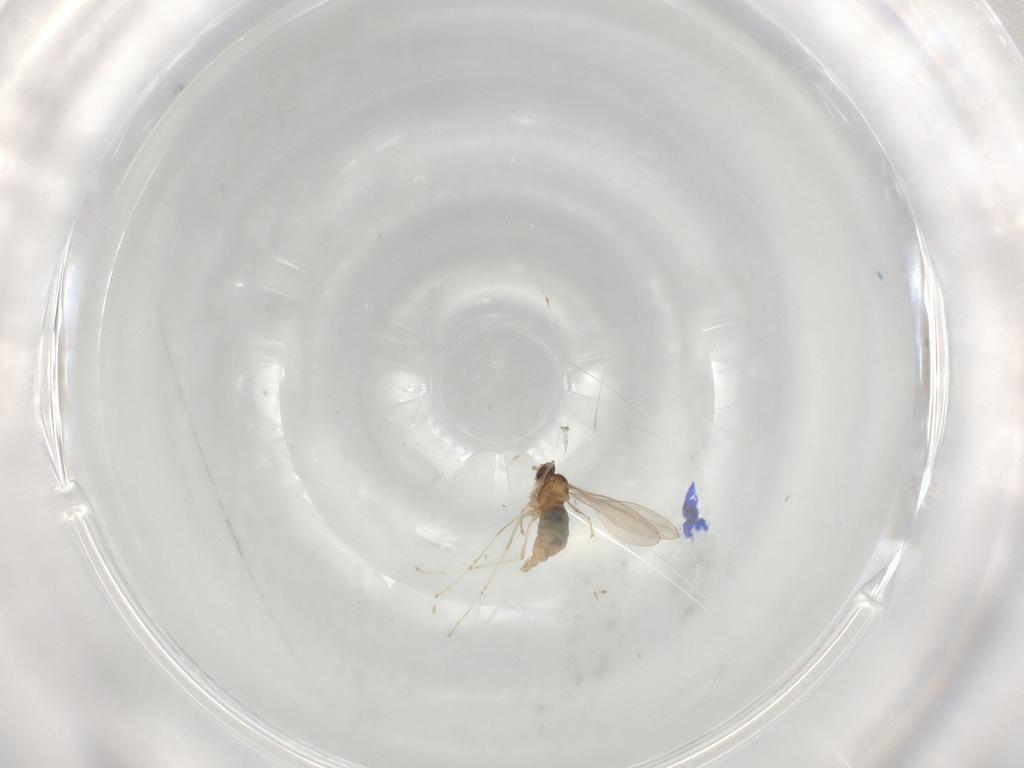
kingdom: Animalia
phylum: Arthropoda
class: Insecta
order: Diptera
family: Cecidomyiidae
